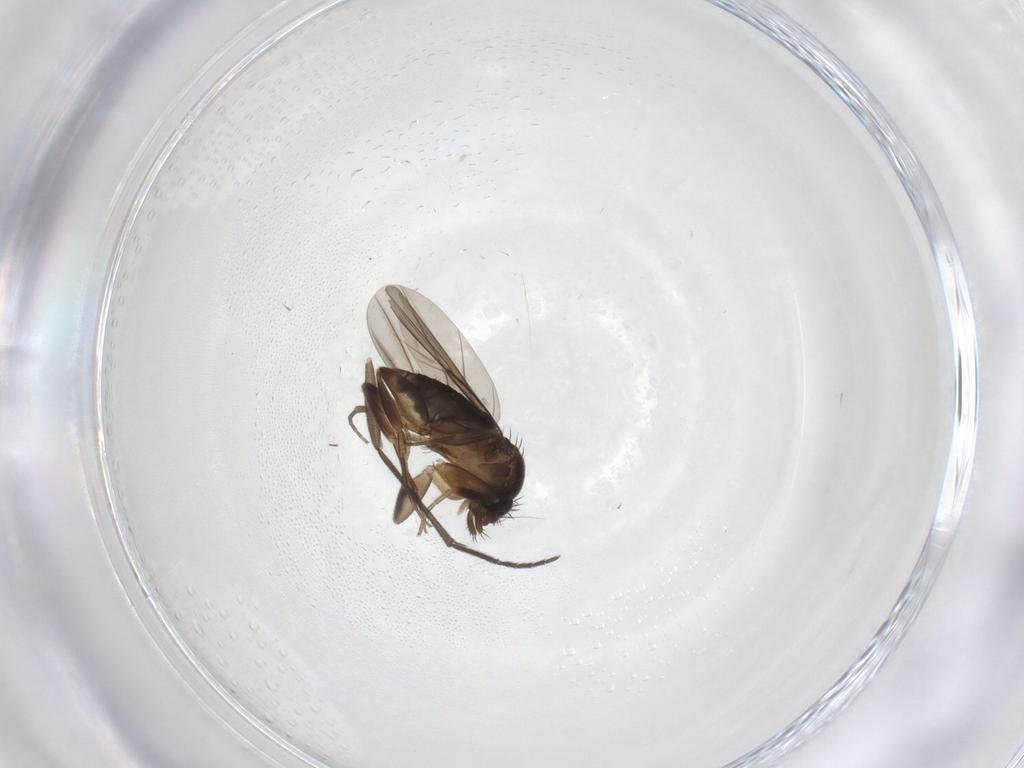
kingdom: Animalia
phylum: Arthropoda
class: Insecta
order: Diptera
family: Phoridae
